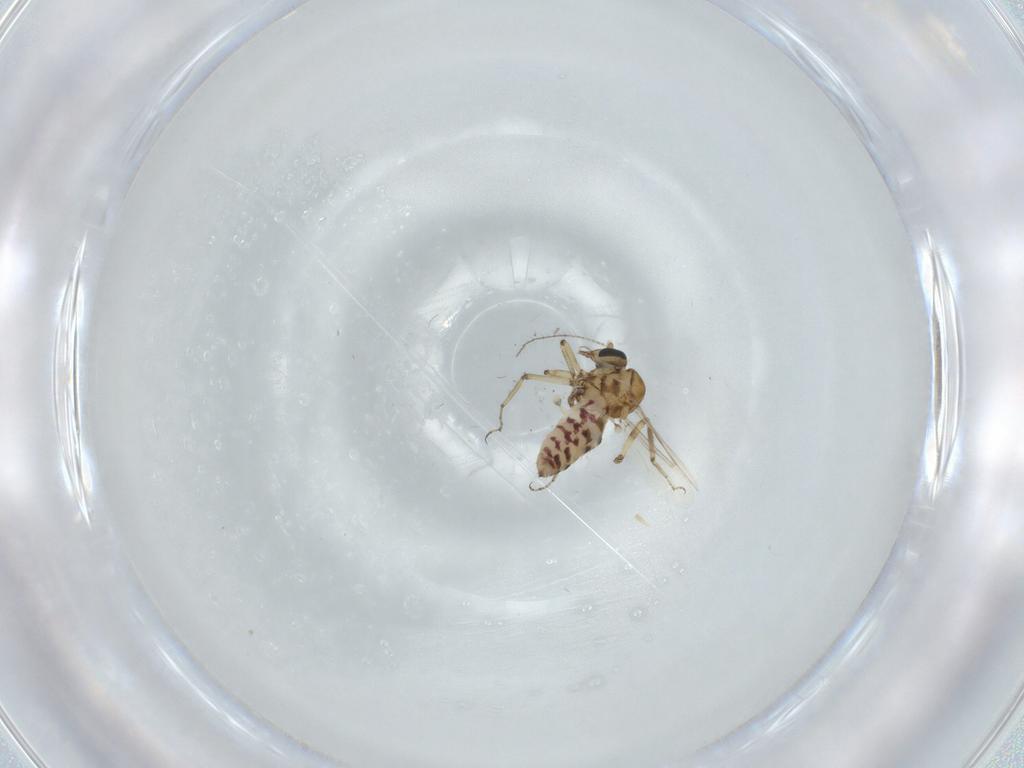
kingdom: Animalia
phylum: Arthropoda
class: Insecta
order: Diptera
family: Ceratopogonidae
